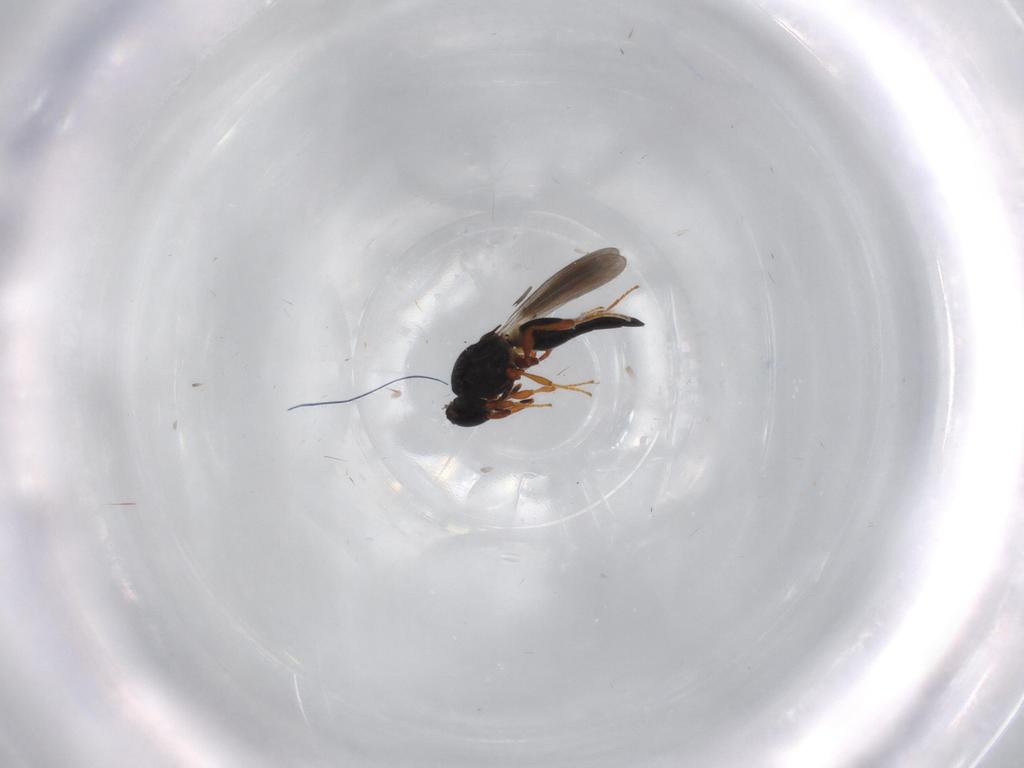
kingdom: Animalia
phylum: Arthropoda
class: Insecta
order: Hymenoptera
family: Platygastridae
